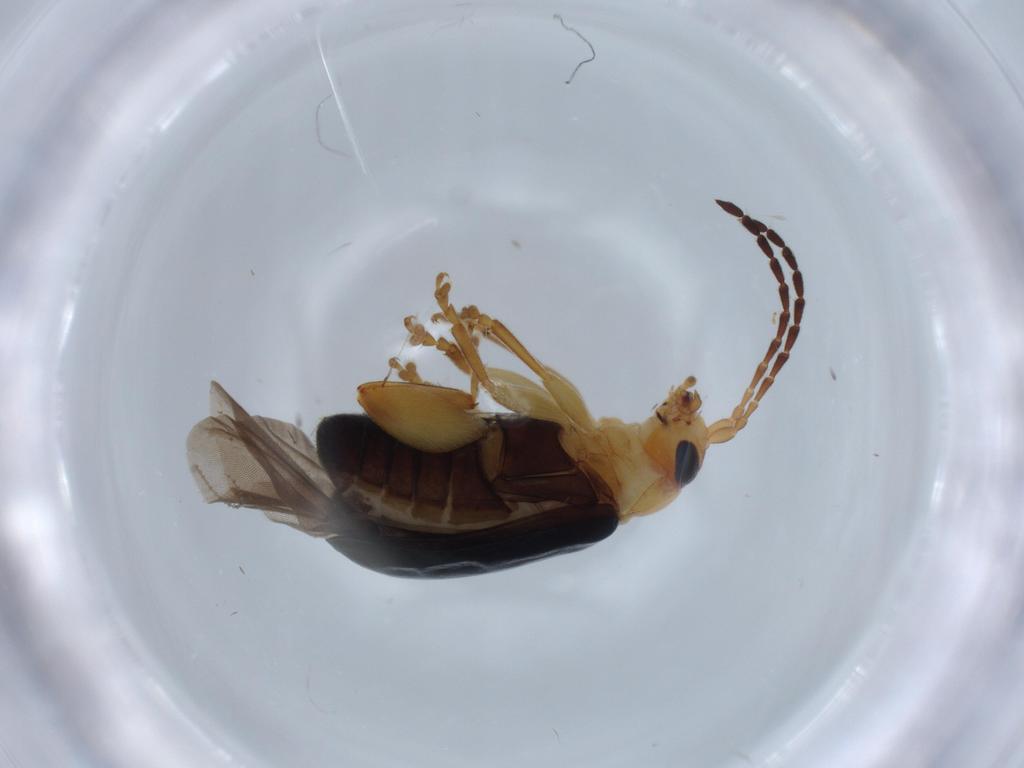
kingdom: Animalia
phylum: Arthropoda
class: Insecta
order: Coleoptera
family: Chrysomelidae
